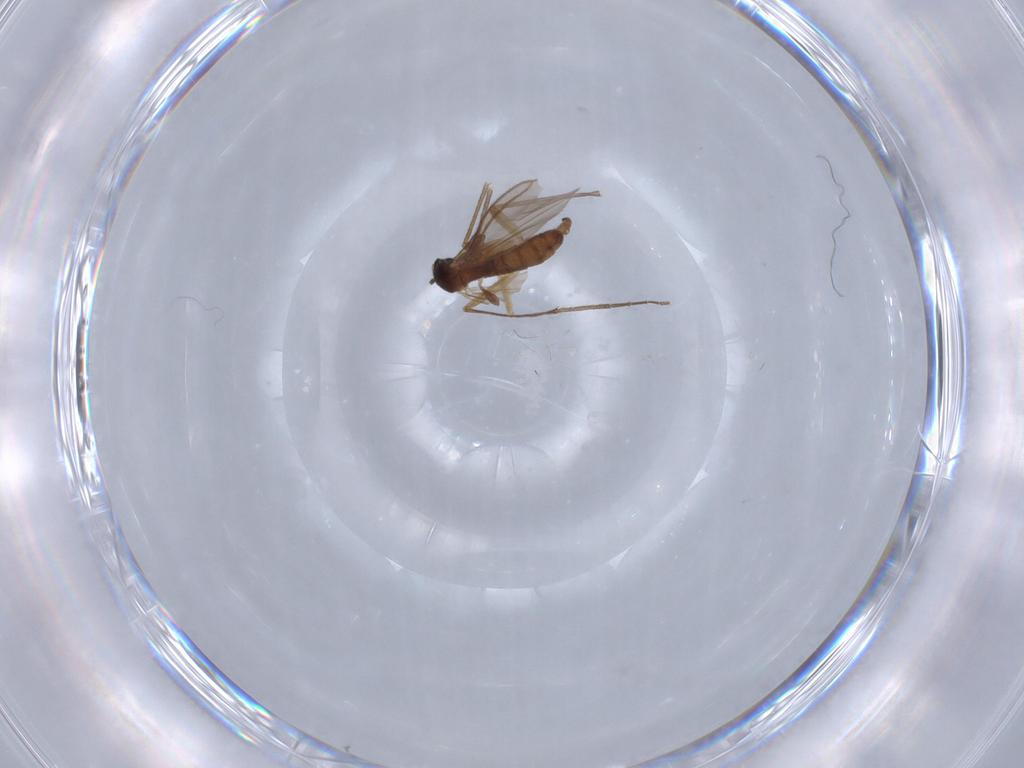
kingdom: Animalia
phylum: Arthropoda
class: Insecta
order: Diptera
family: Sciaridae
